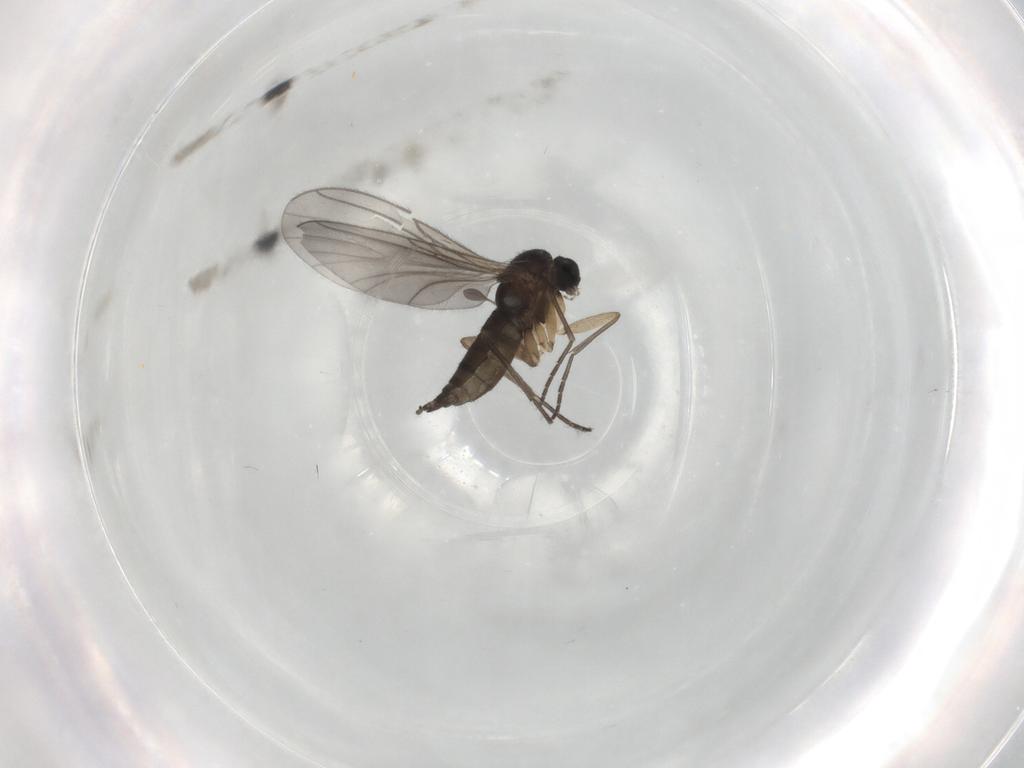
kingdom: Animalia
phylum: Arthropoda
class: Insecta
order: Diptera
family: Sciaridae
